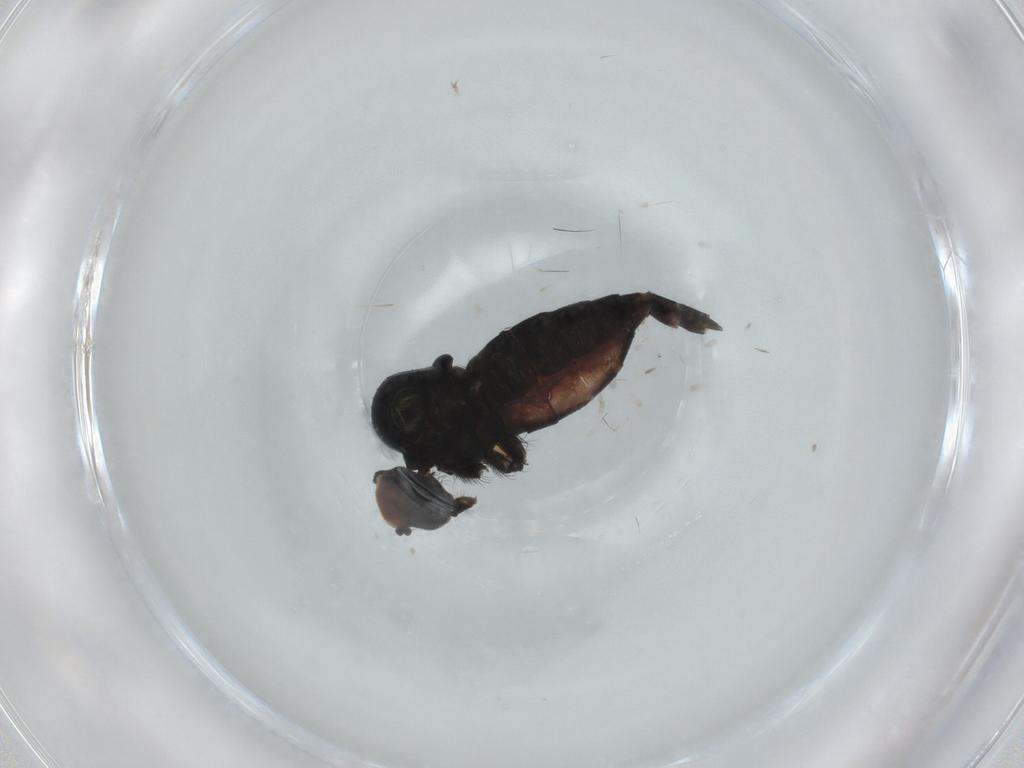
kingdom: Animalia
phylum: Arthropoda
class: Insecta
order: Diptera
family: Hybotidae
